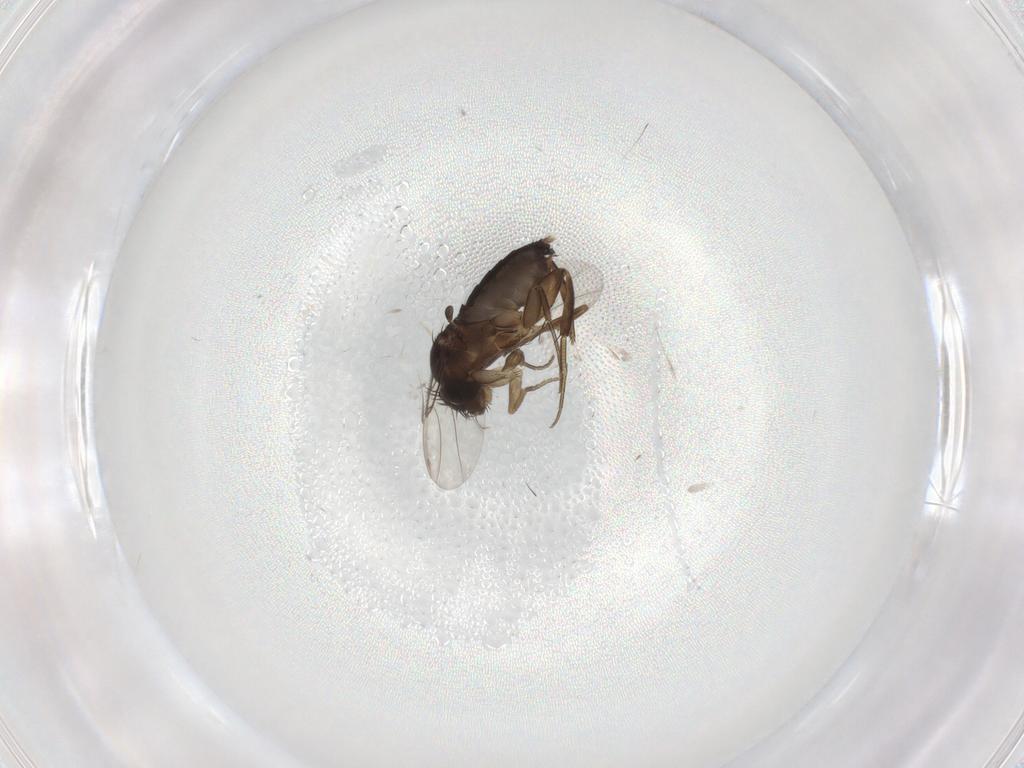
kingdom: Animalia
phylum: Arthropoda
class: Insecta
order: Diptera
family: Phoridae
